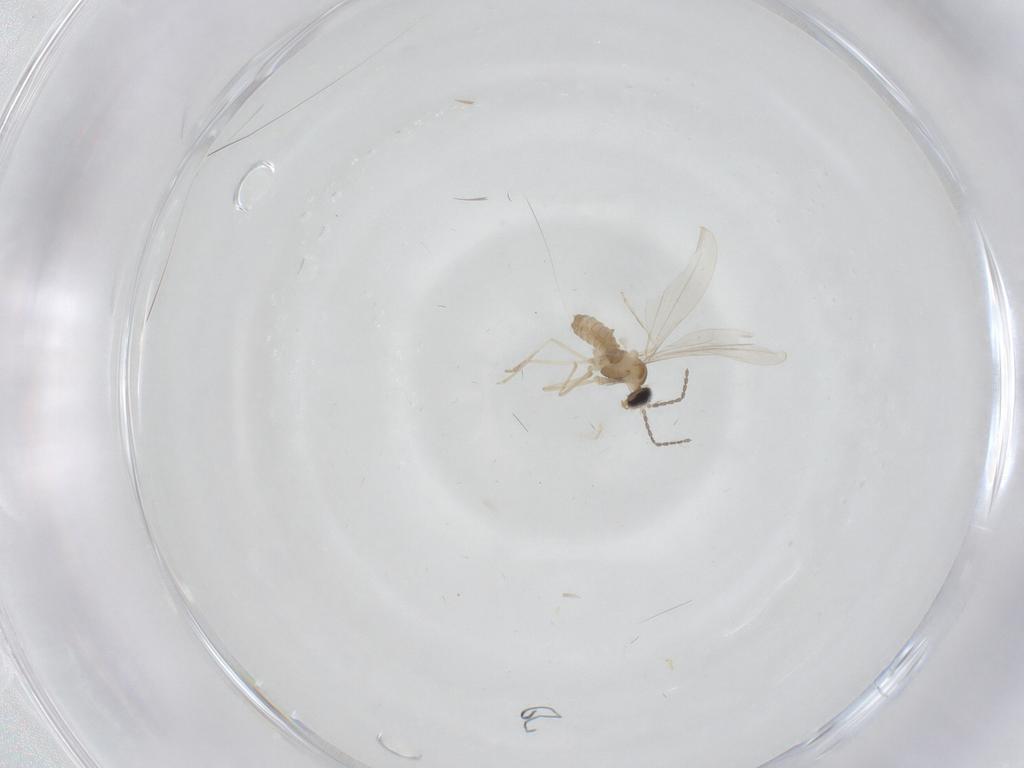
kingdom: Animalia
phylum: Arthropoda
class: Insecta
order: Diptera
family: Cecidomyiidae
